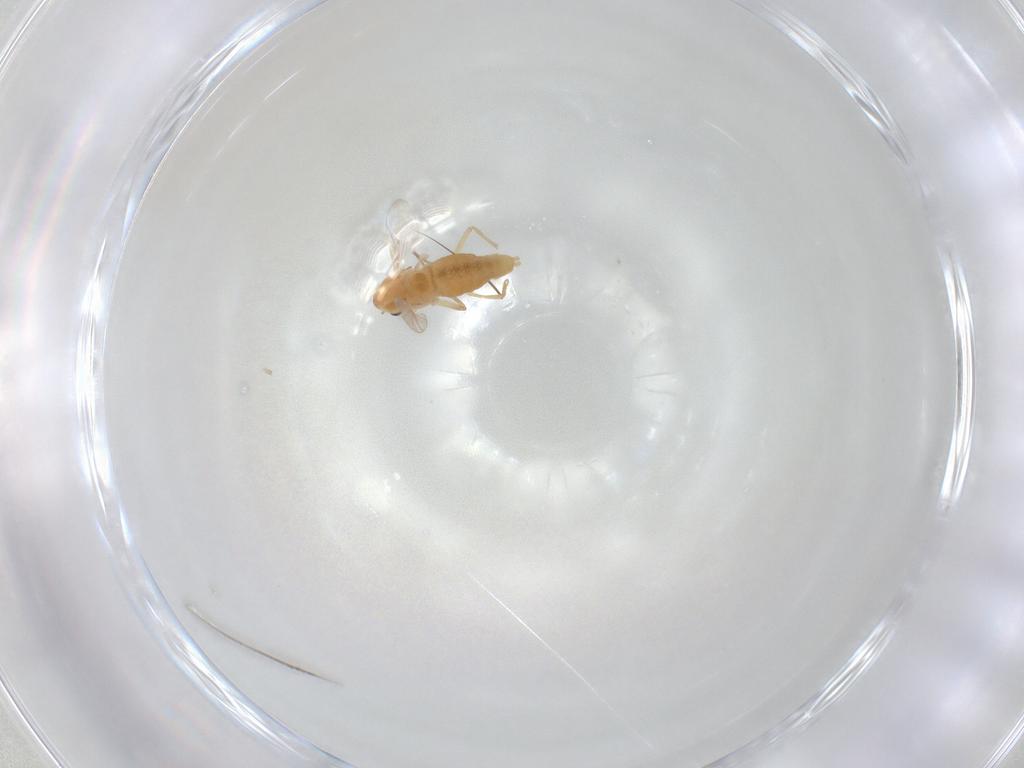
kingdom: Animalia
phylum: Arthropoda
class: Insecta
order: Diptera
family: Chironomidae
